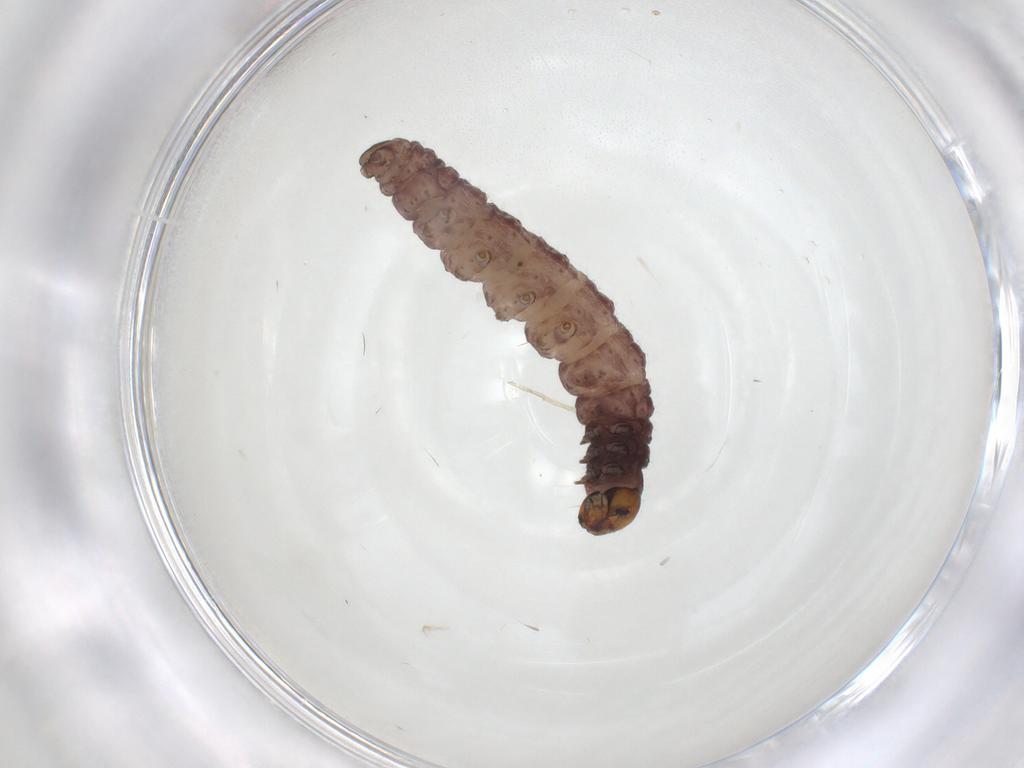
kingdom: Animalia
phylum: Arthropoda
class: Insecta
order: Lepidoptera
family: Gelechiidae
